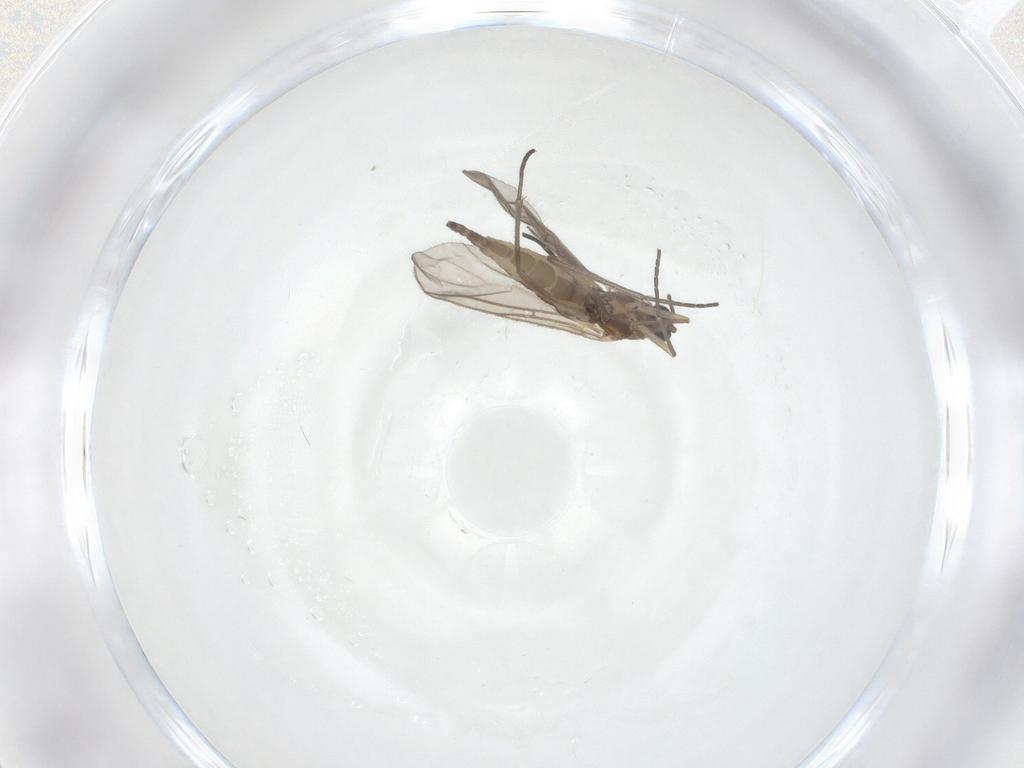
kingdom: Animalia
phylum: Arthropoda
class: Insecta
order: Diptera
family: Sciaridae
